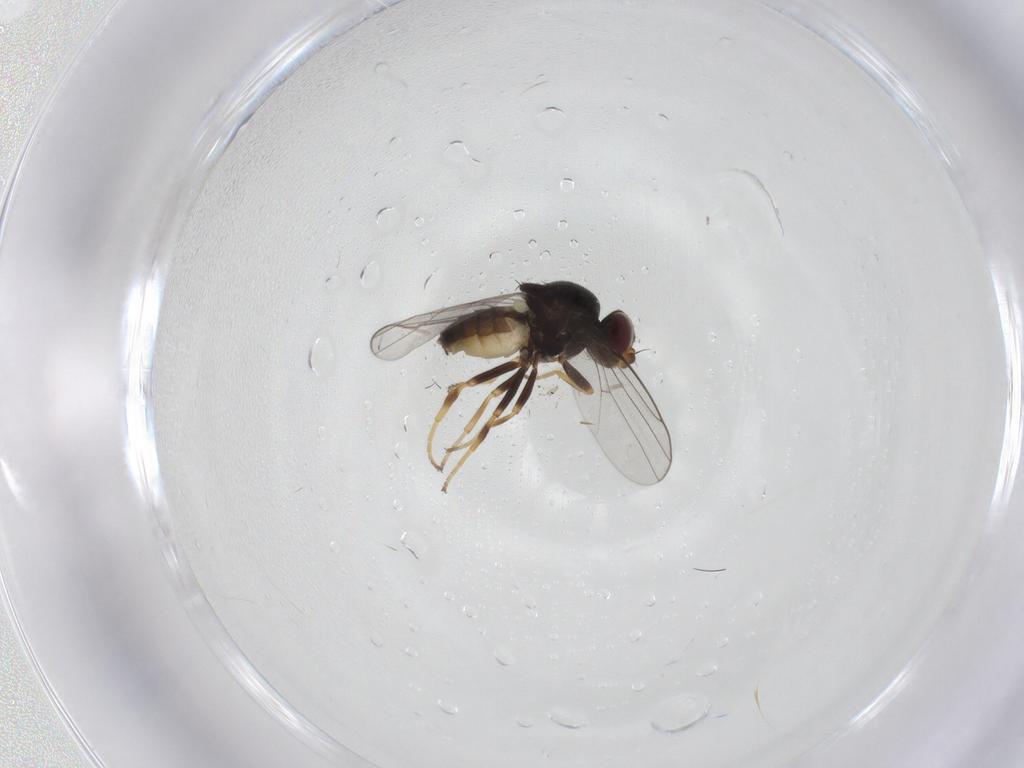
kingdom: Animalia
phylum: Arthropoda
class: Insecta
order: Diptera
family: Chloropidae
